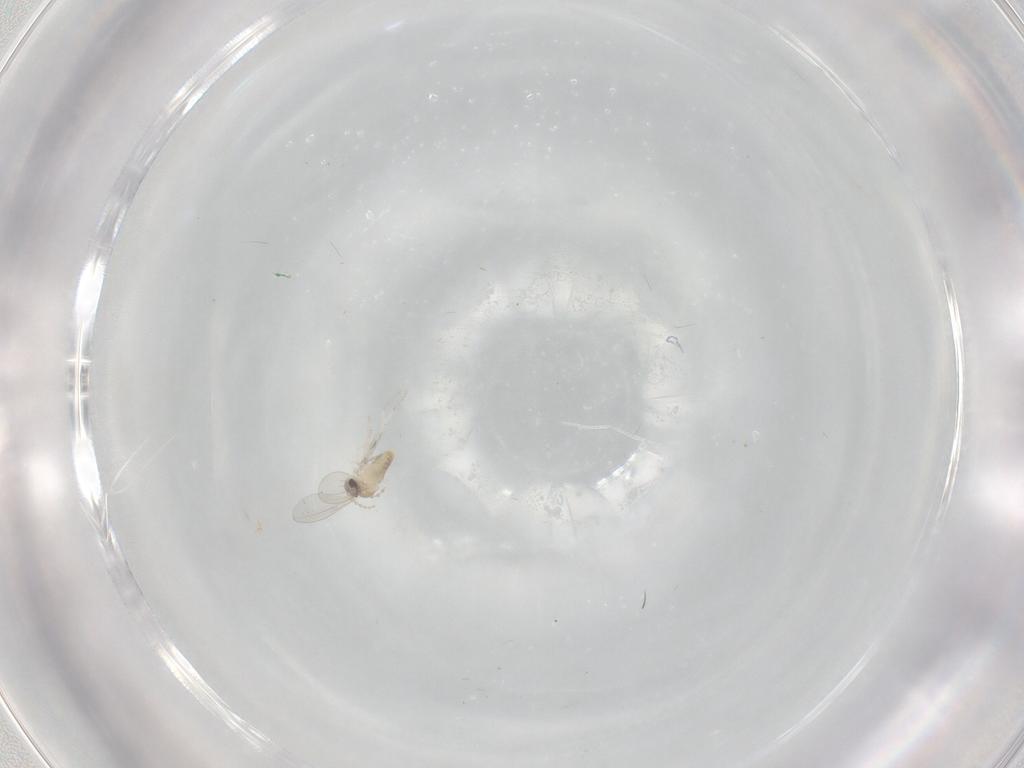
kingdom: Animalia
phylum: Arthropoda
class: Insecta
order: Diptera
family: Cecidomyiidae
